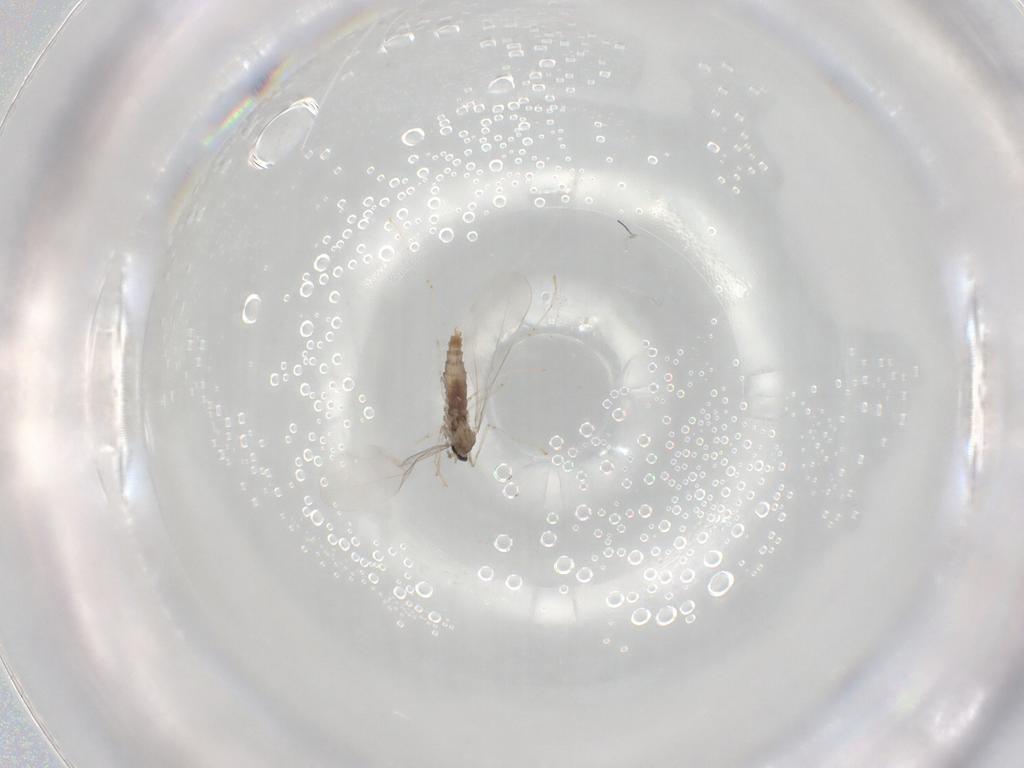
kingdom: Animalia
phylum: Arthropoda
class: Insecta
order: Diptera
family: Cecidomyiidae
